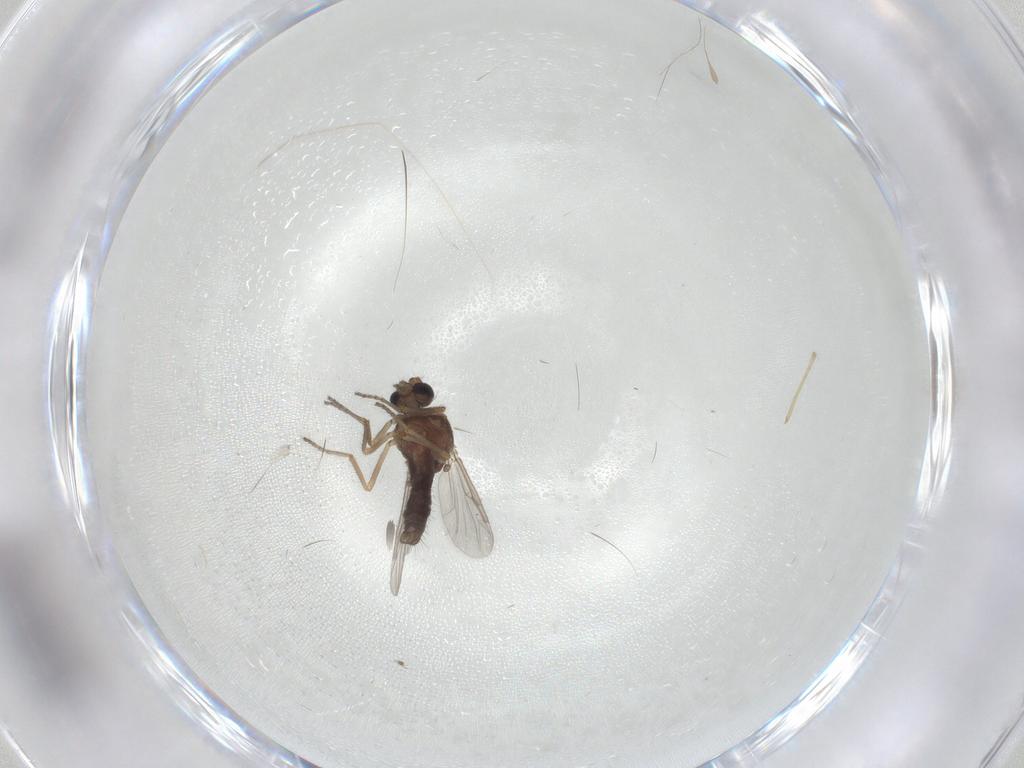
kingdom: Animalia
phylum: Arthropoda
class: Insecta
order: Diptera
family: Ceratopogonidae
